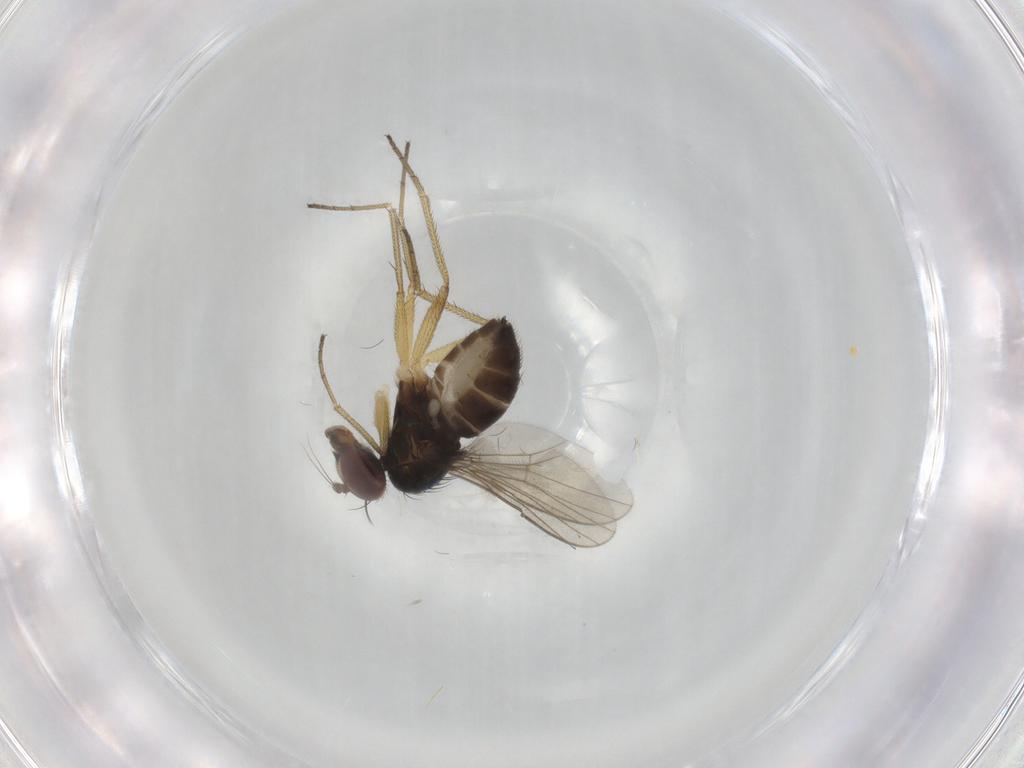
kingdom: Animalia
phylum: Arthropoda
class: Insecta
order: Diptera
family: Dolichopodidae
